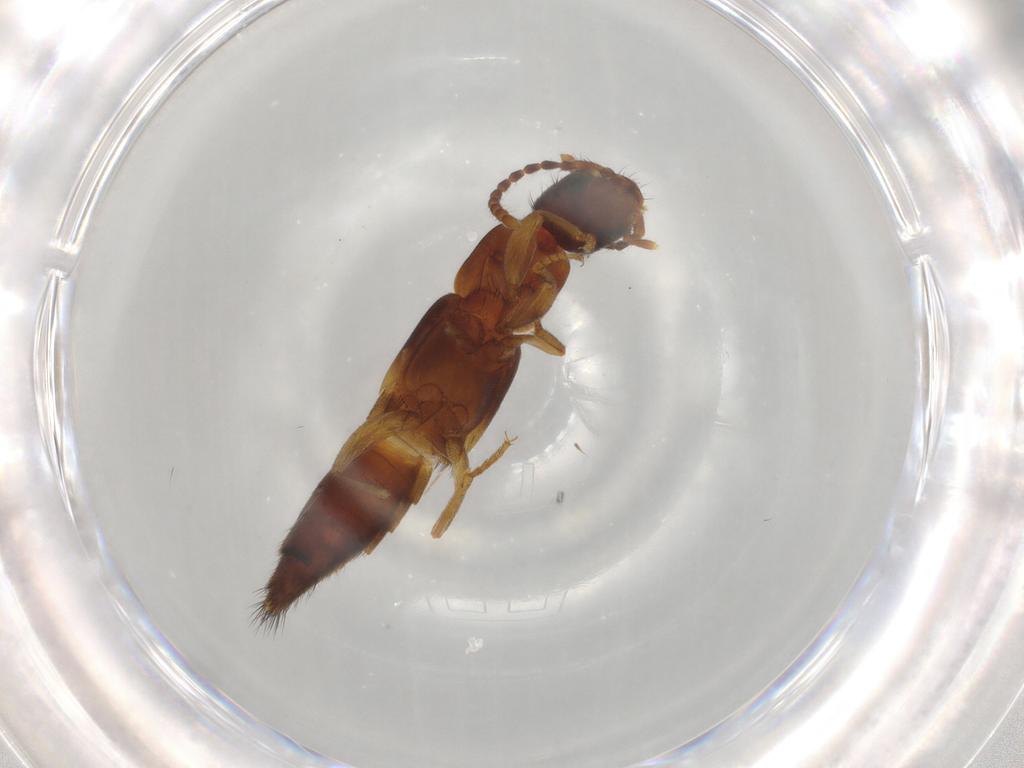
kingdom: Animalia
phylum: Arthropoda
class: Insecta
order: Coleoptera
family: Staphylinidae
